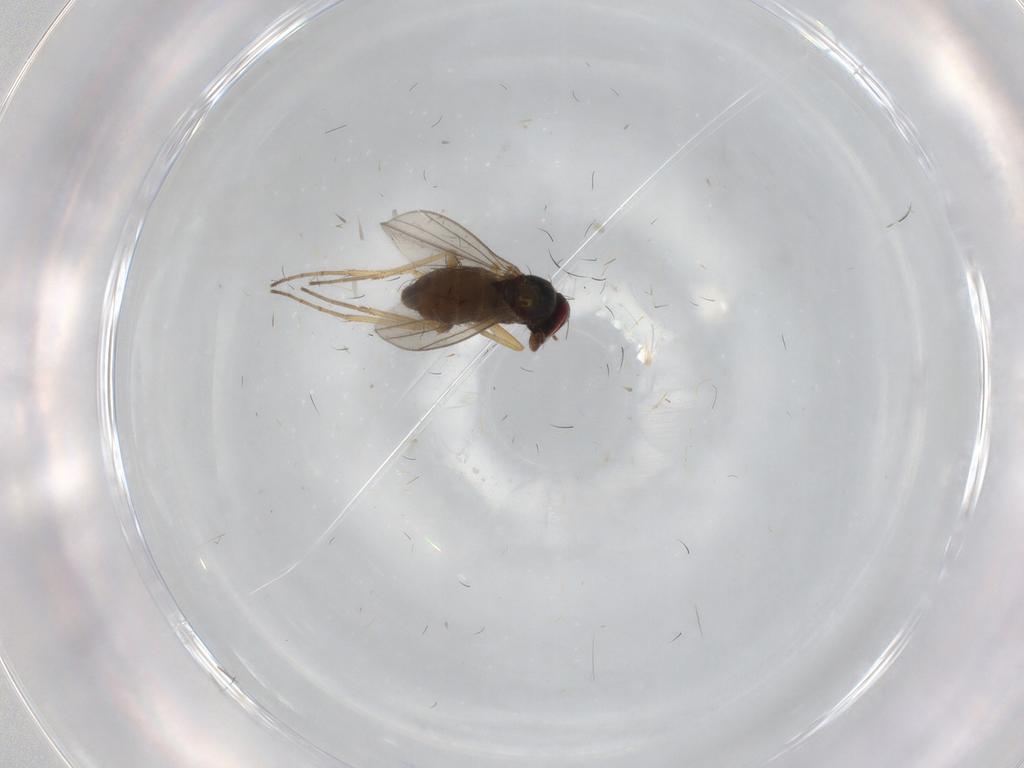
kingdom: Animalia
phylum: Arthropoda
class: Insecta
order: Diptera
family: Dolichopodidae
